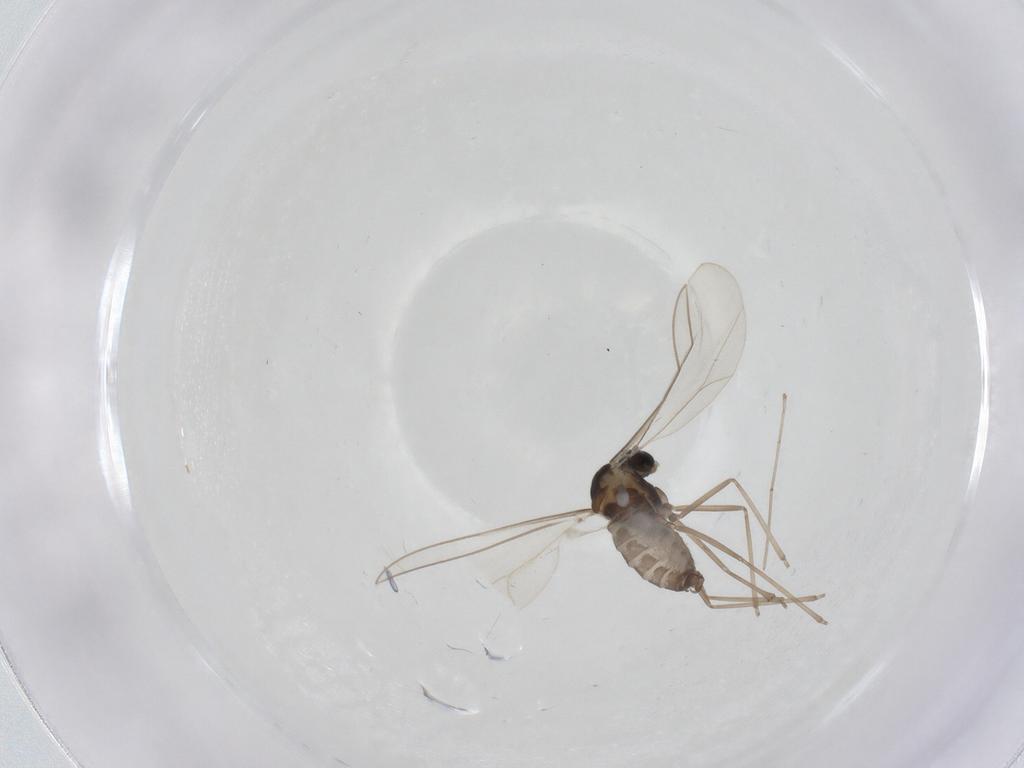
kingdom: Animalia
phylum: Arthropoda
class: Insecta
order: Diptera
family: Cecidomyiidae
